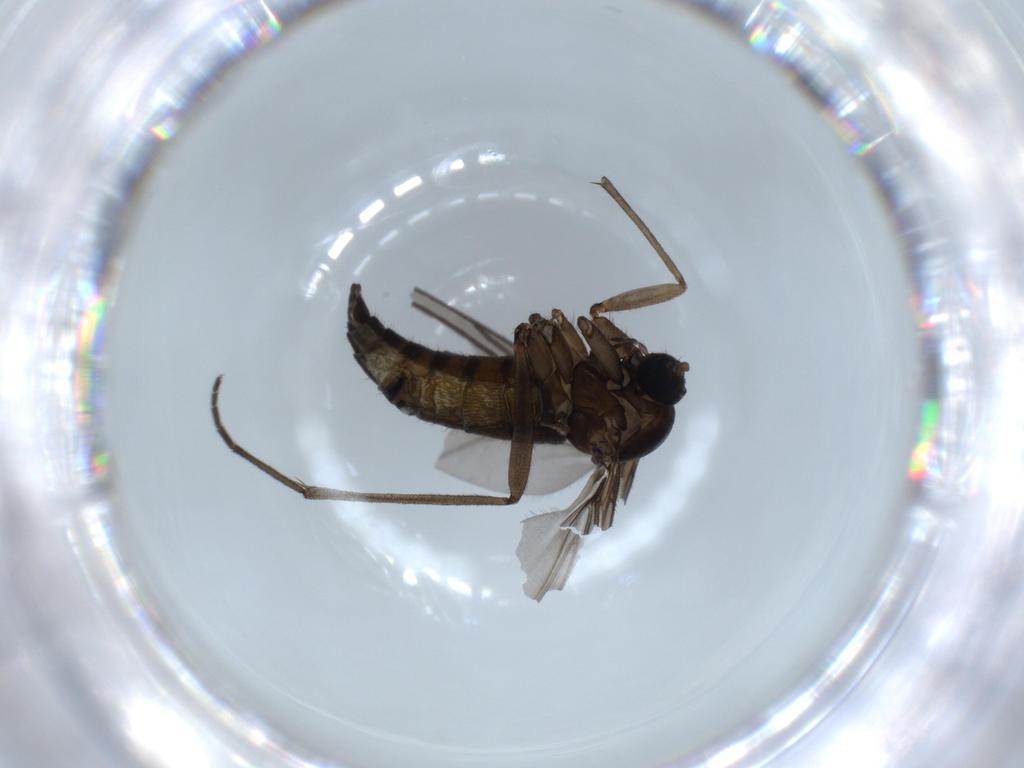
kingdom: Animalia
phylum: Arthropoda
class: Insecta
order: Diptera
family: Sciaridae
